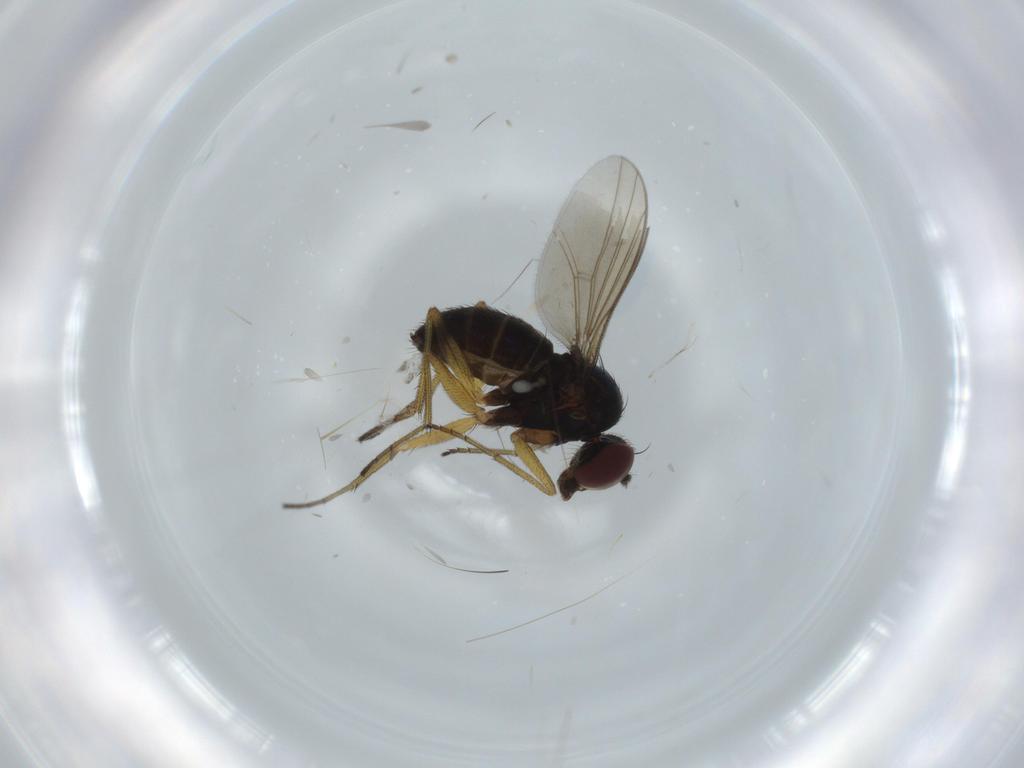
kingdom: Animalia
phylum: Arthropoda
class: Insecta
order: Diptera
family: Dolichopodidae
